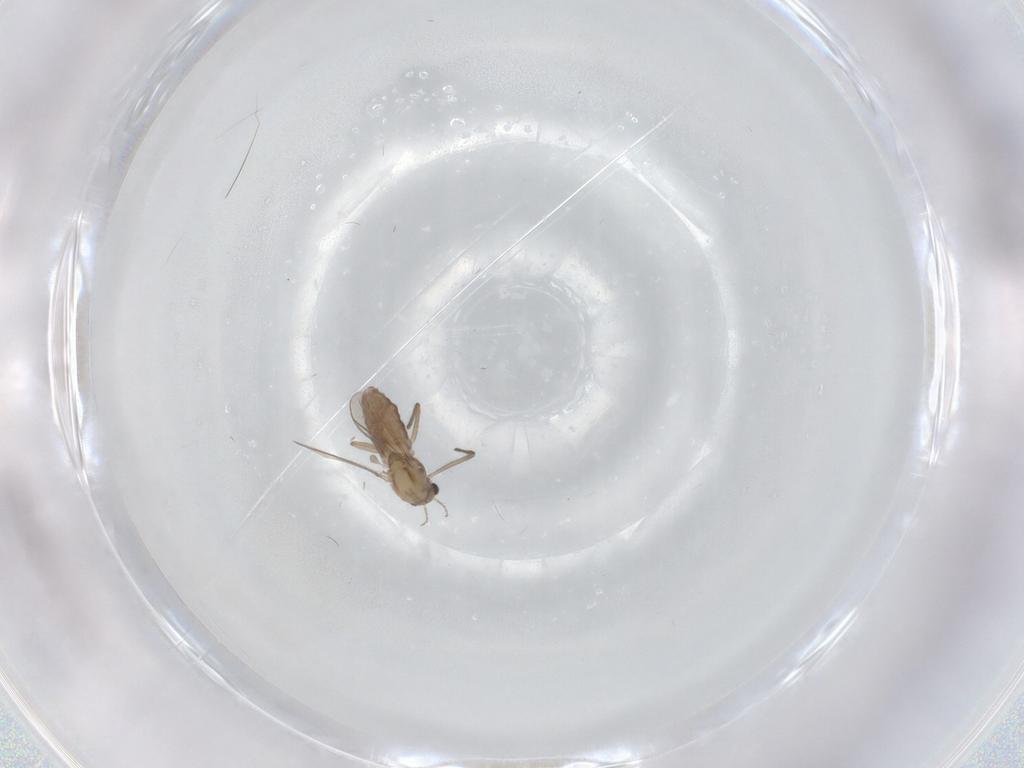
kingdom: Animalia
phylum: Arthropoda
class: Insecta
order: Diptera
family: Chironomidae
